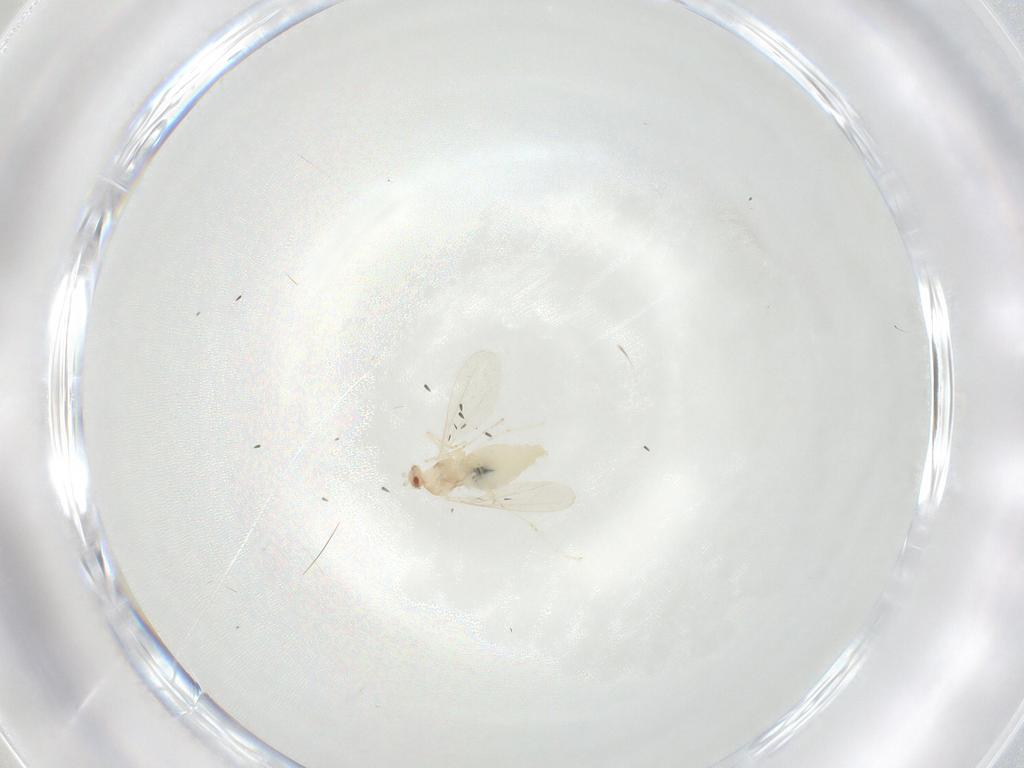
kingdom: Animalia
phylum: Arthropoda
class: Insecta
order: Diptera
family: Cecidomyiidae
